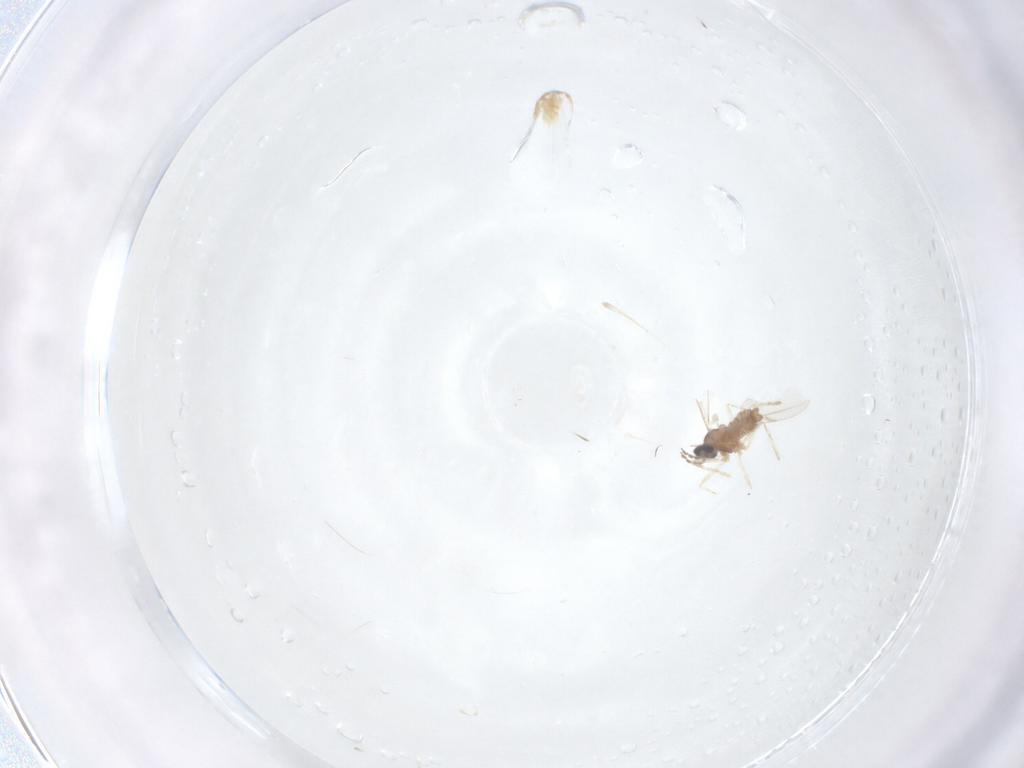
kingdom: Animalia
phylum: Arthropoda
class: Insecta
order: Diptera
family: Cecidomyiidae
